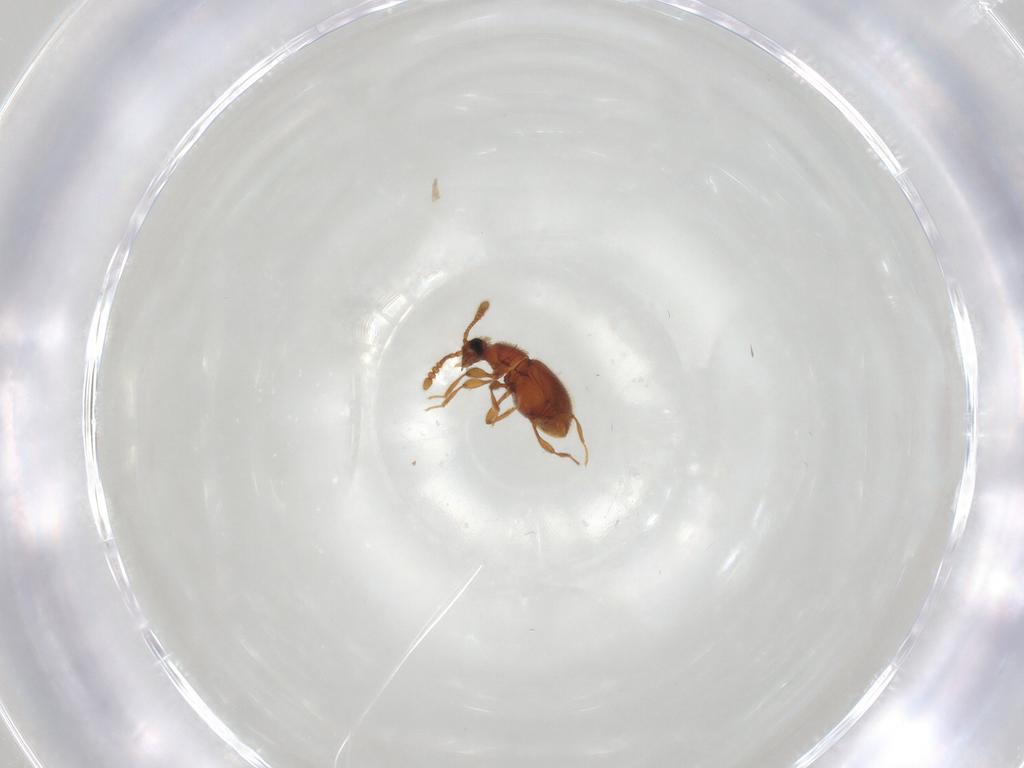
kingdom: Animalia
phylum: Arthropoda
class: Insecta
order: Coleoptera
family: Staphylinidae
